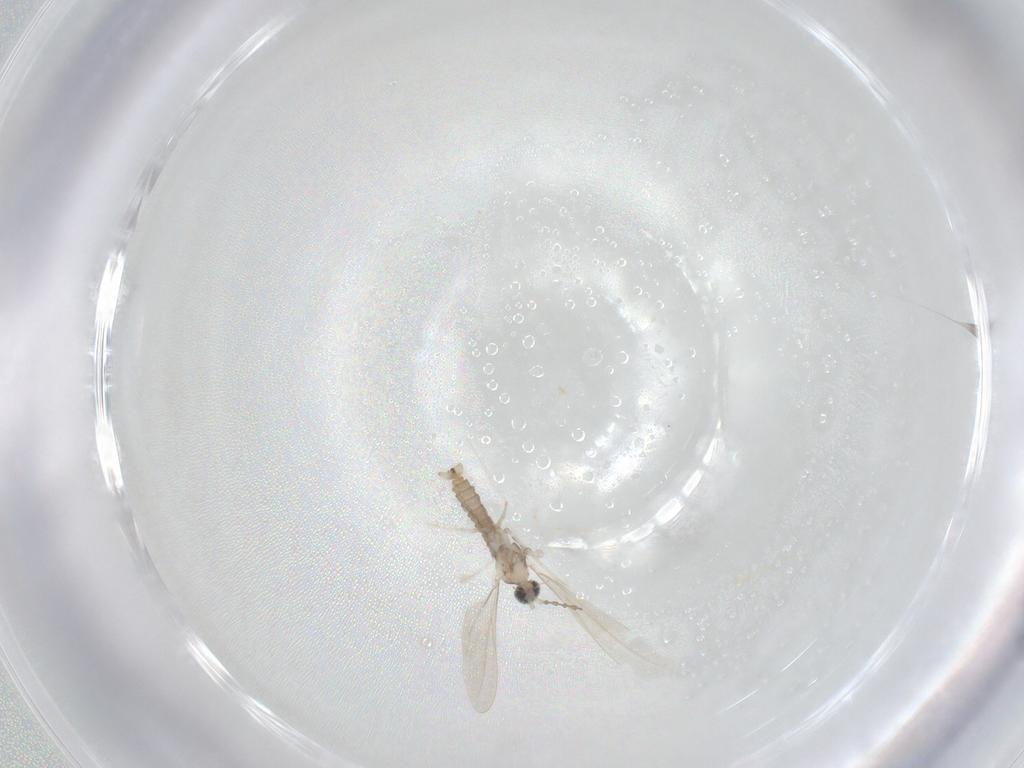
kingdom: Animalia
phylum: Arthropoda
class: Insecta
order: Diptera
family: Cecidomyiidae
